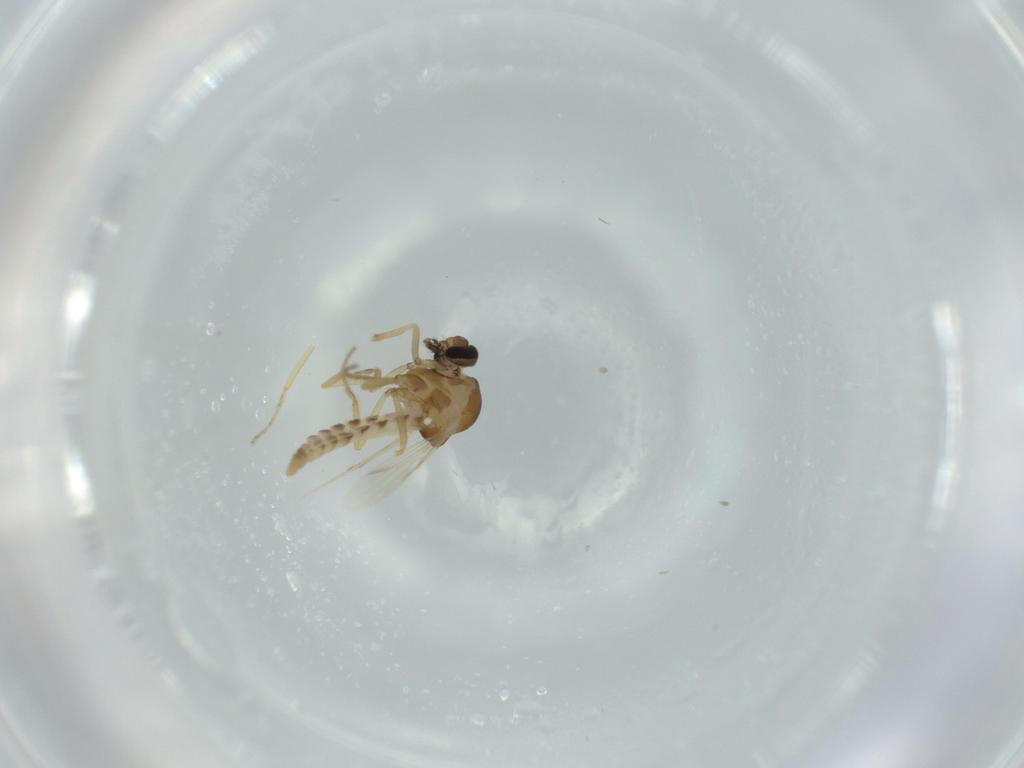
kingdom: Animalia
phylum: Arthropoda
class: Insecta
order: Diptera
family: Ceratopogonidae
